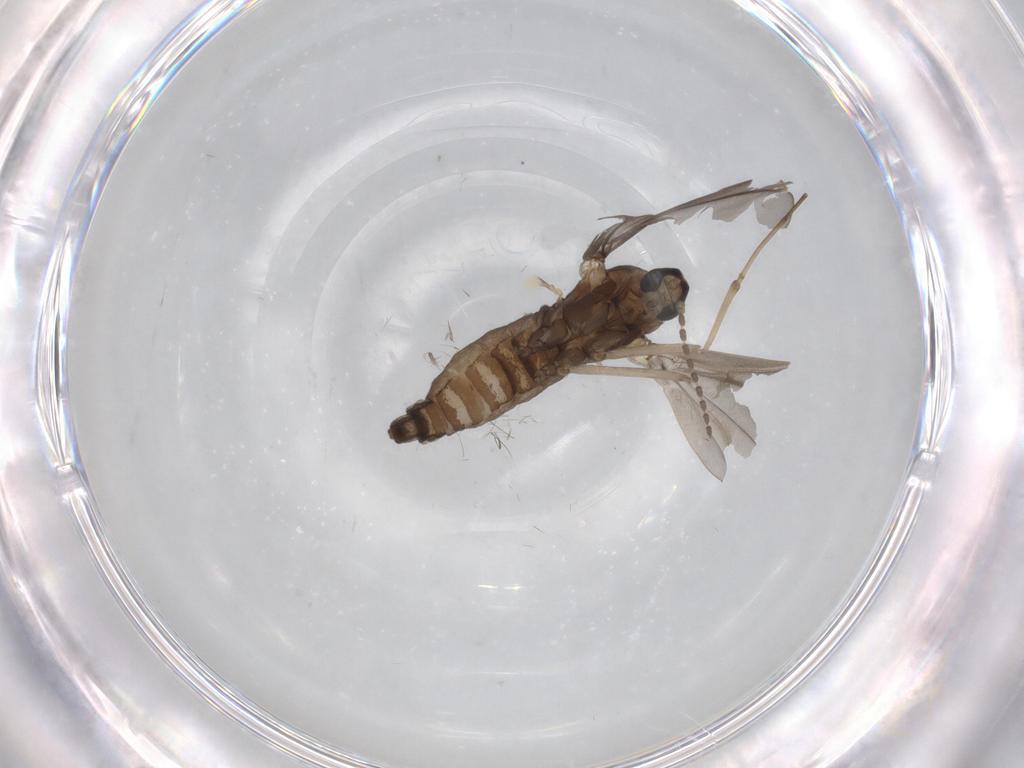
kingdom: Animalia
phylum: Arthropoda
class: Insecta
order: Diptera
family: Cecidomyiidae
